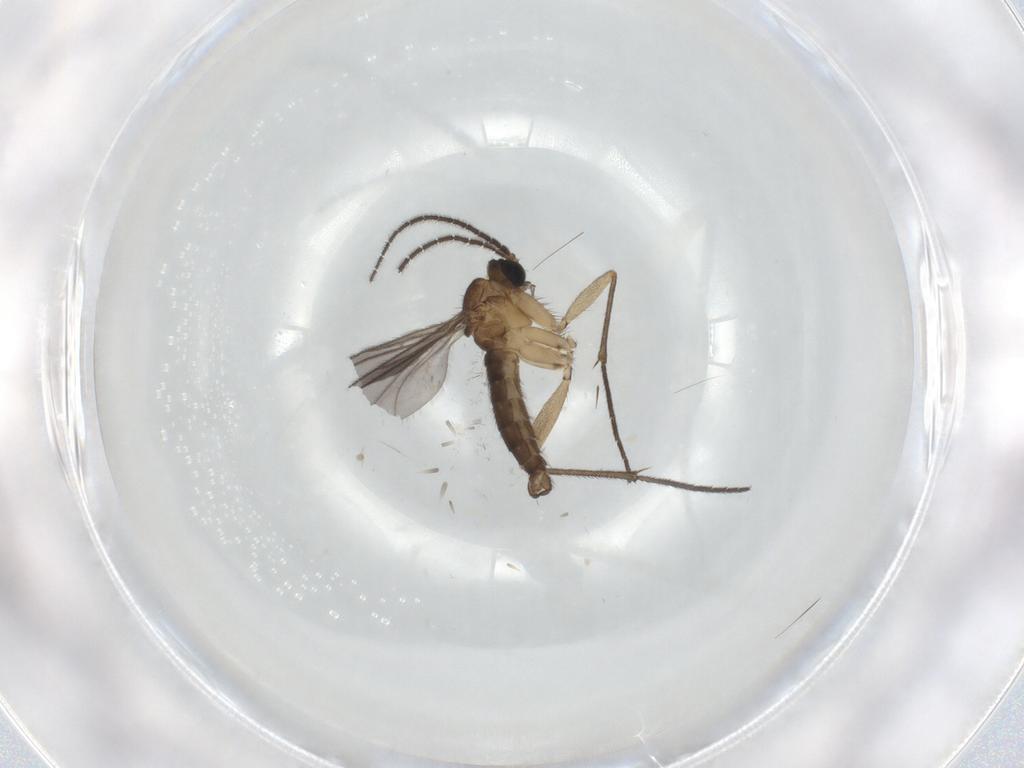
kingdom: Animalia
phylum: Arthropoda
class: Insecta
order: Diptera
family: Cecidomyiidae
